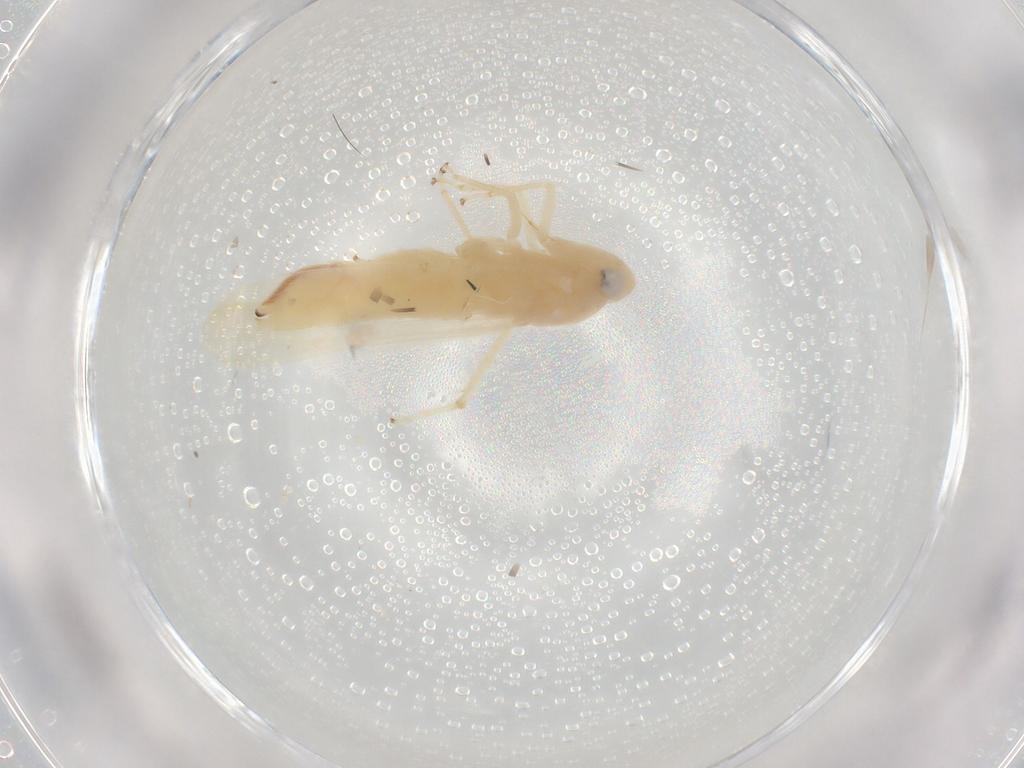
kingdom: Animalia
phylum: Arthropoda
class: Insecta
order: Hemiptera
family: Cicadellidae
